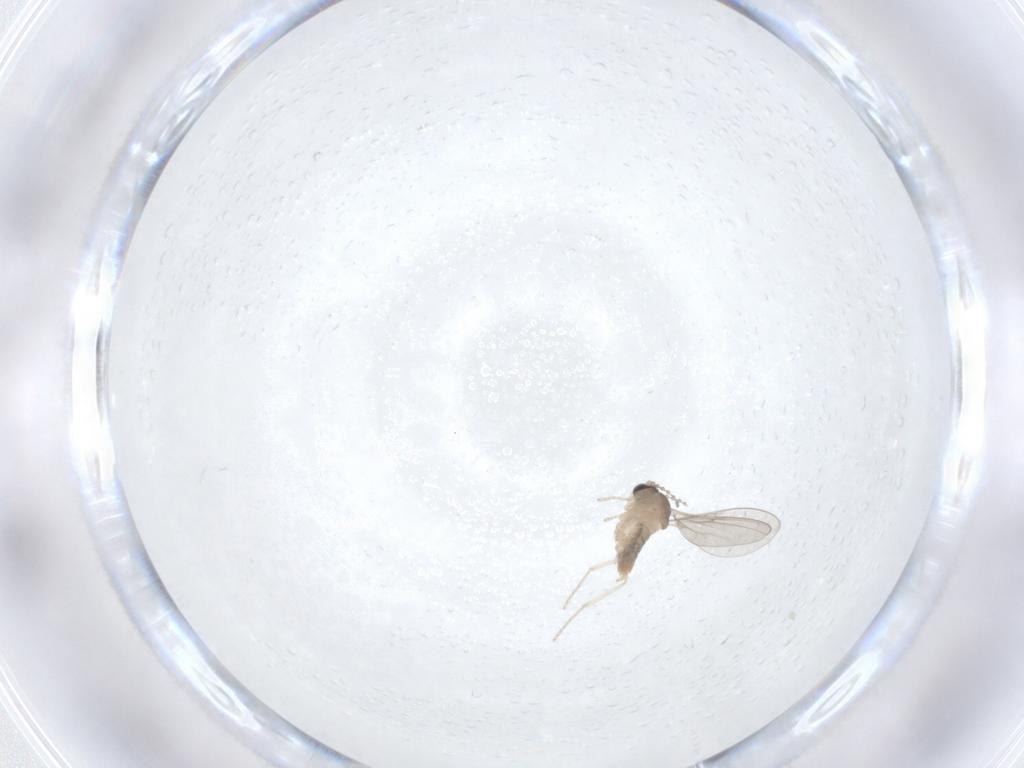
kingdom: Animalia
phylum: Arthropoda
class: Insecta
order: Diptera
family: Cecidomyiidae
